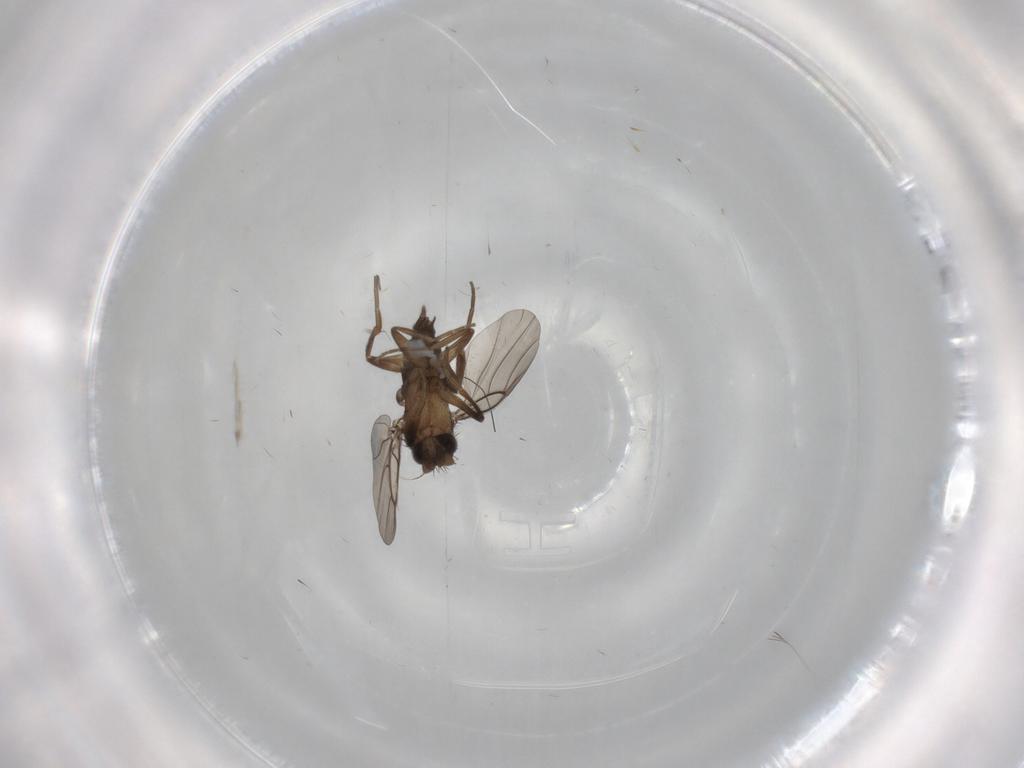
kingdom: Animalia
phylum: Arthropoda
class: Insecta
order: Diptera
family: Phoridae
